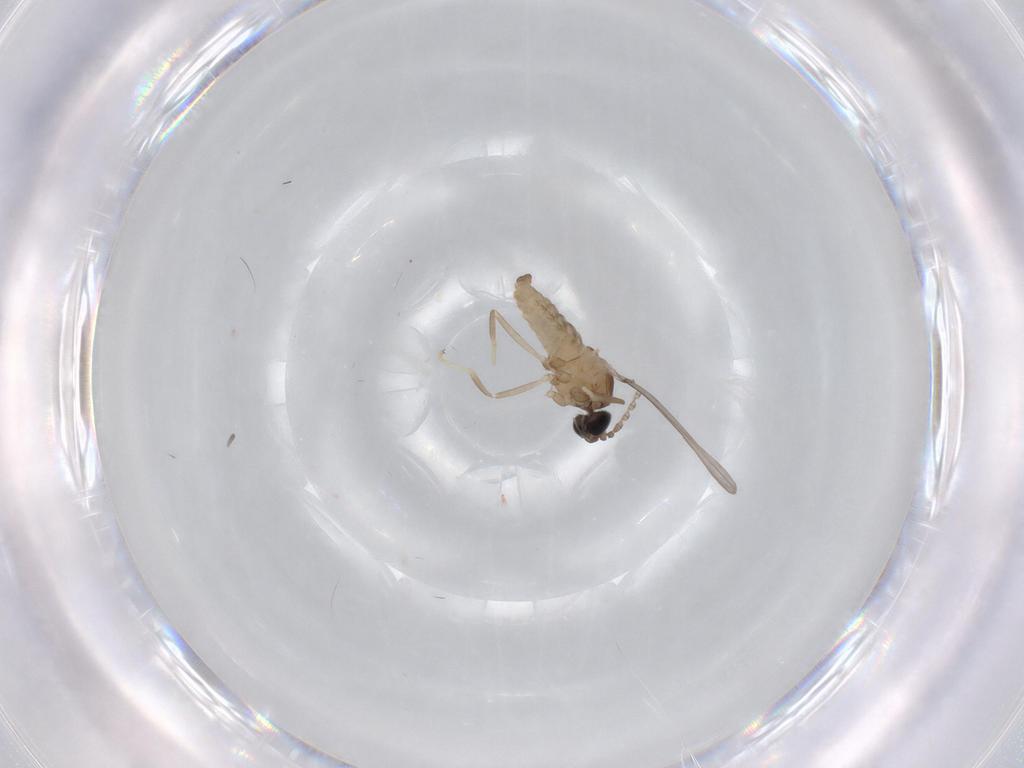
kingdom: Animalia
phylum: Arthropoda
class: Insecta
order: Diptera
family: Cecidomyiidae
